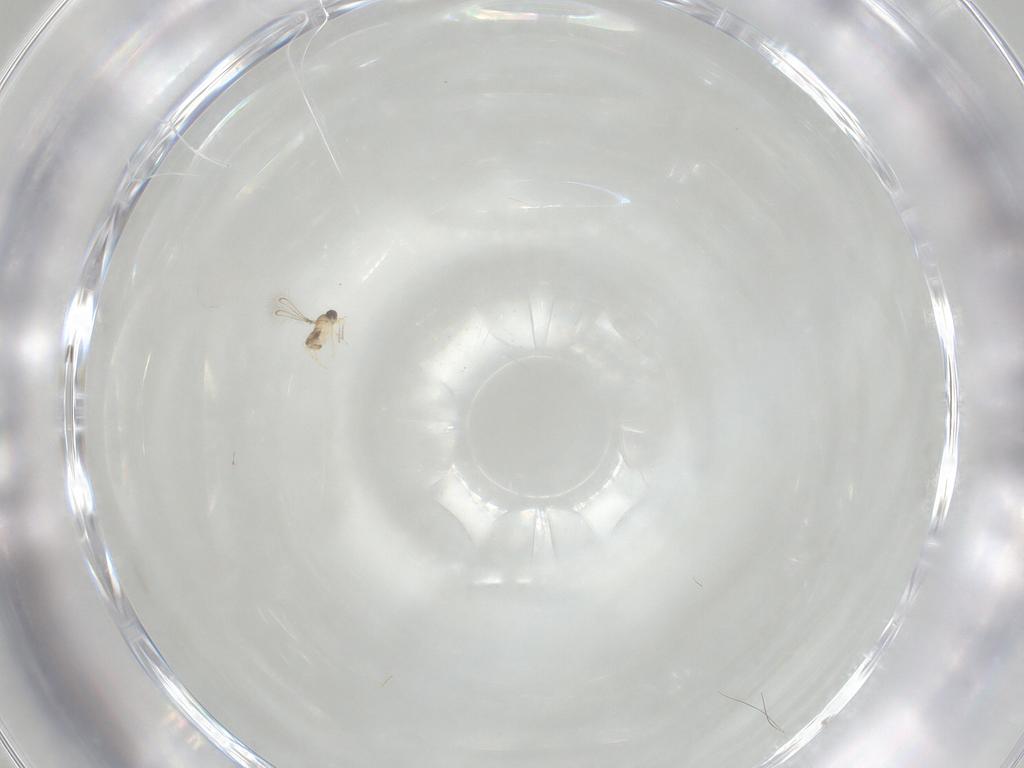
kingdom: Animalia
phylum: Arthropoda
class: Insecta
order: Hymenoptera
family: Mymaridae
